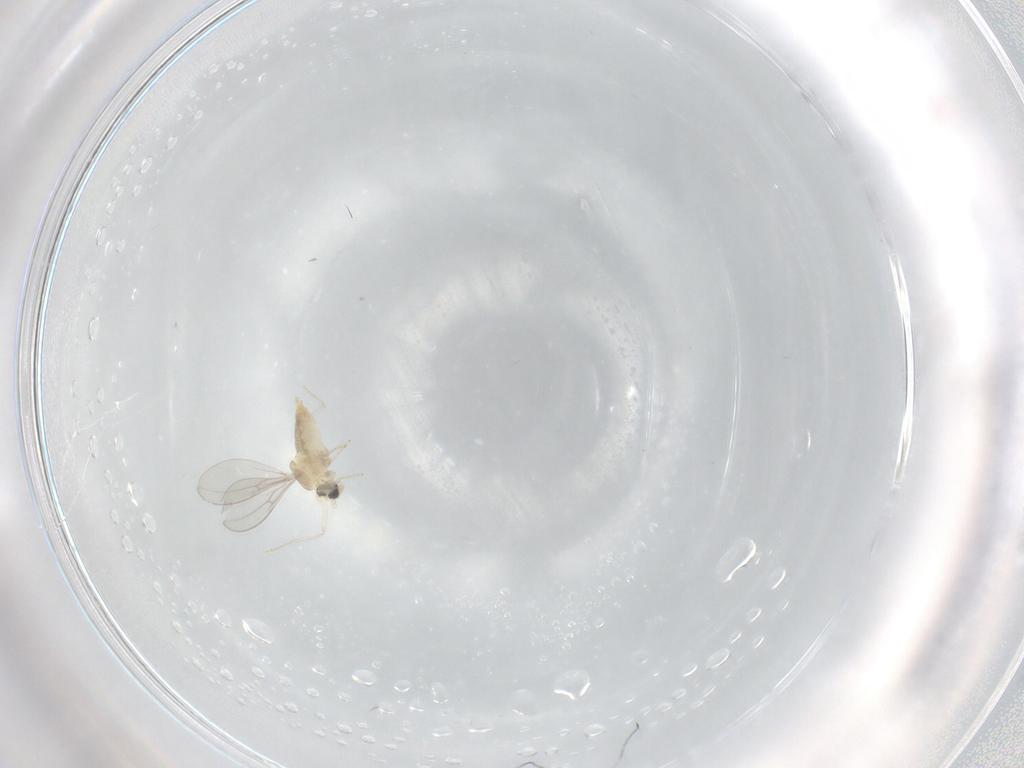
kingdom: Animalia
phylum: Arthropoda
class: Insecta
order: Diptera
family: Cecidomyiidae
